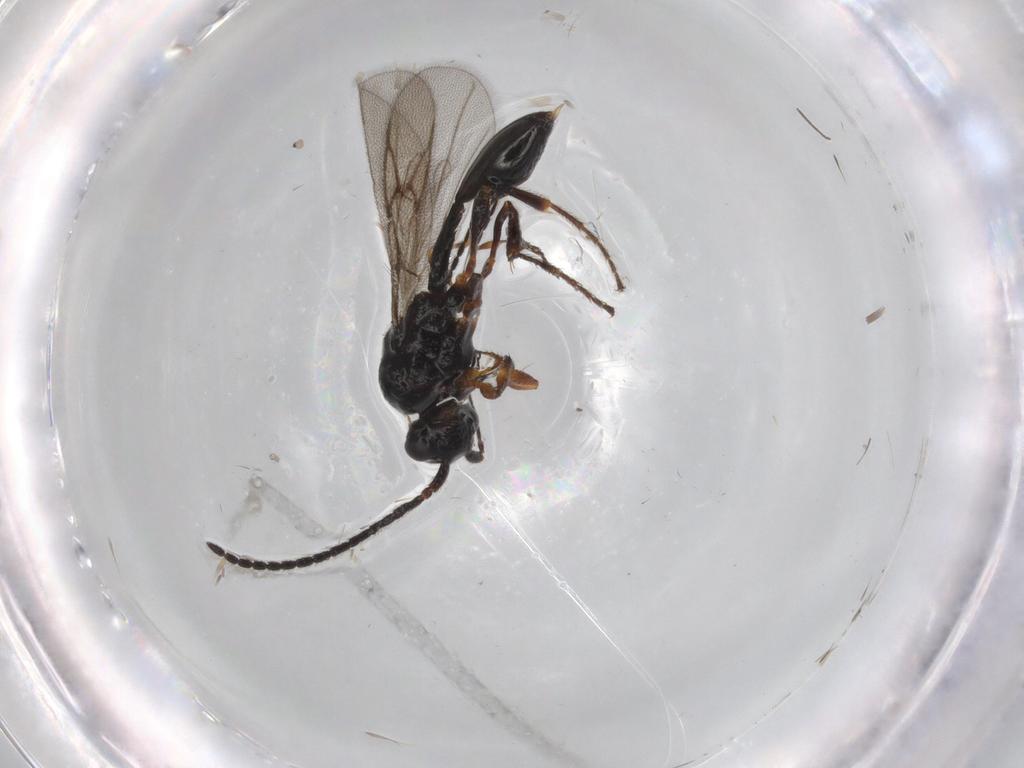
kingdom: Animalia
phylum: Arthropoda
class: Insecta
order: Hymenoptera
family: Diapriidae
